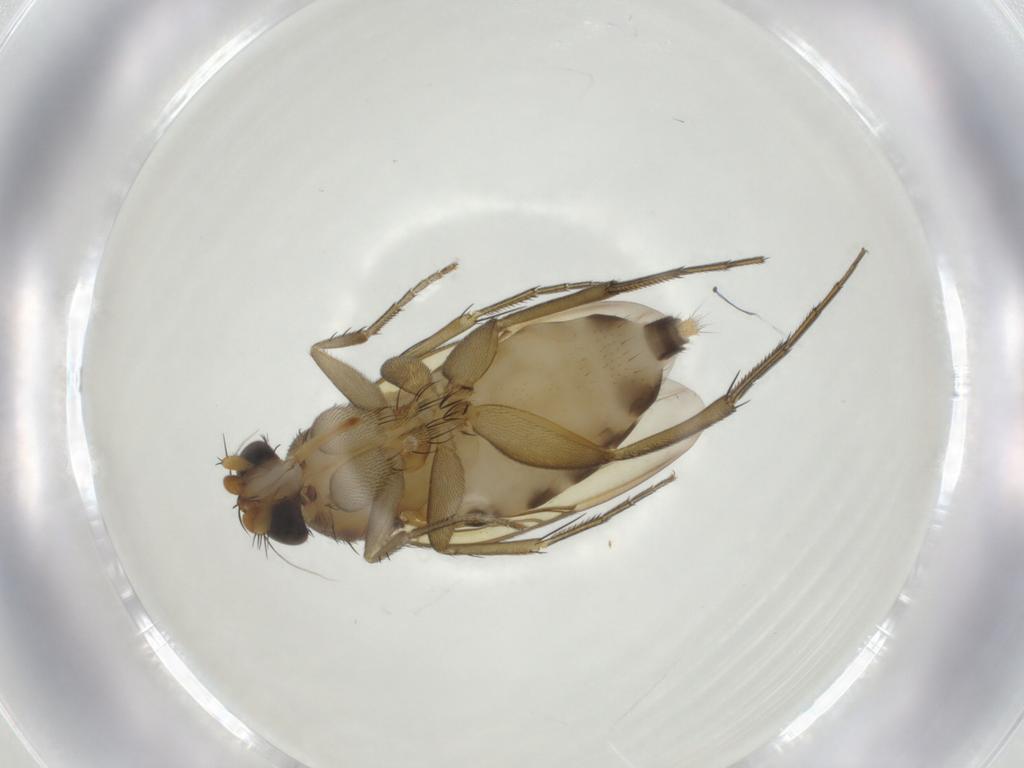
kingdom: Animalia
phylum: Arthropoda
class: Insecta
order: Diptera
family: Phoridae
